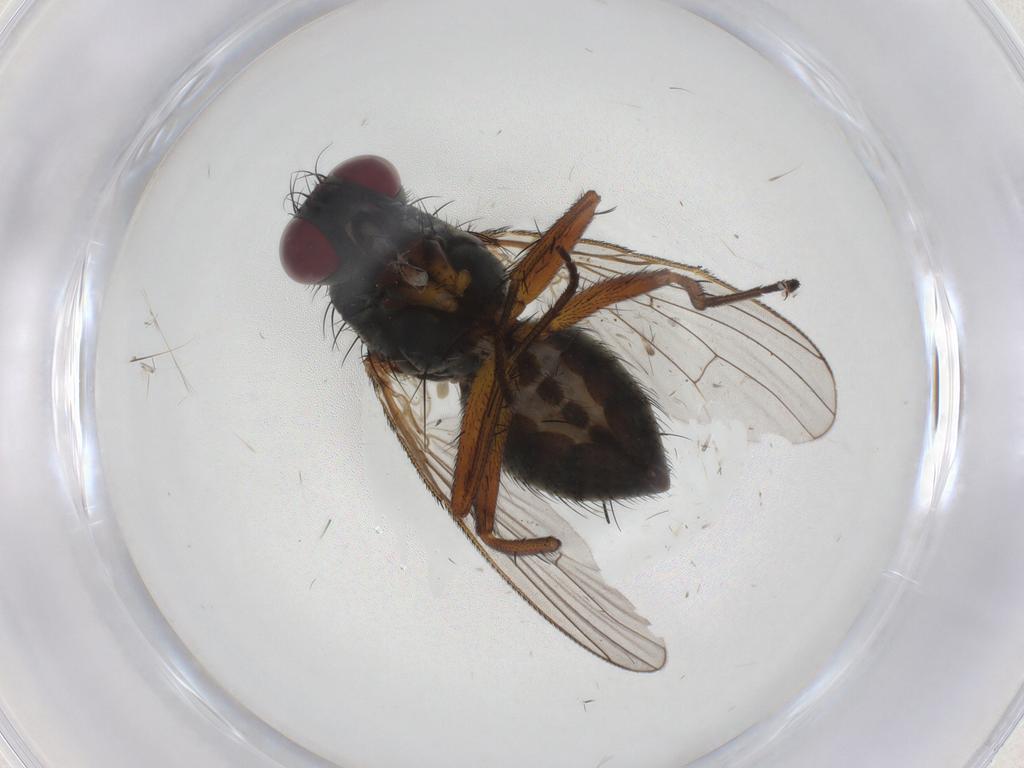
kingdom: Animalia
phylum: Arthropoda
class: Insecta
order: Diptera
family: Muscidae
